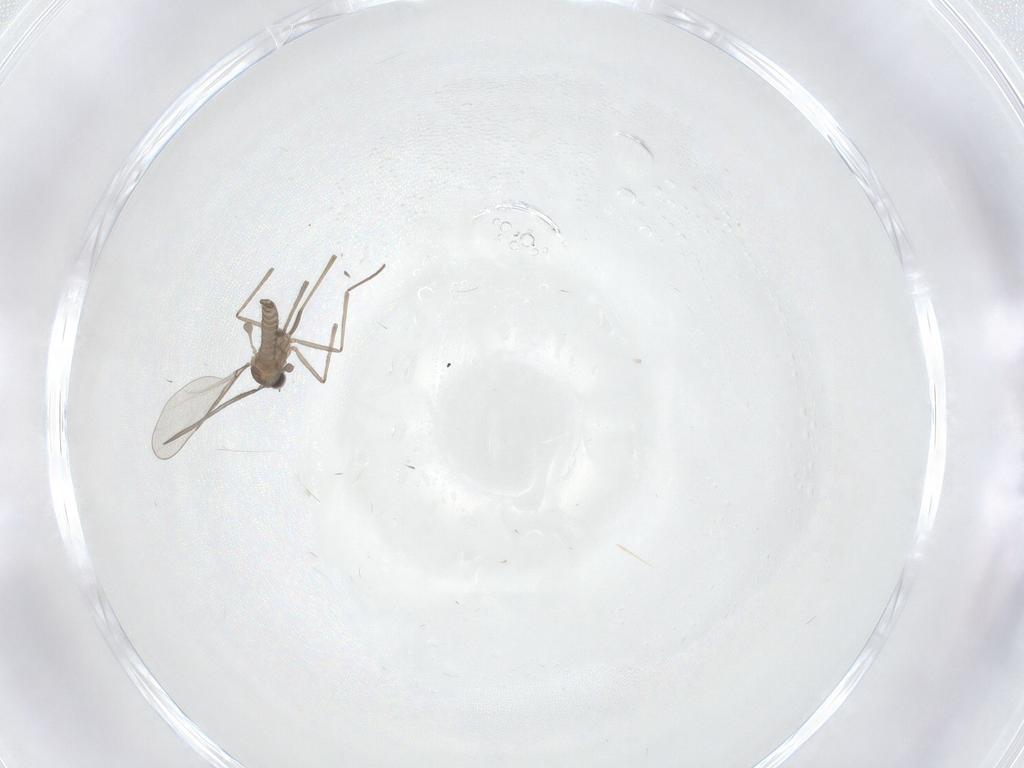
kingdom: Animalia
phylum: Arthropoda
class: Insecta
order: Diptera
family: Cecidomyiidae
